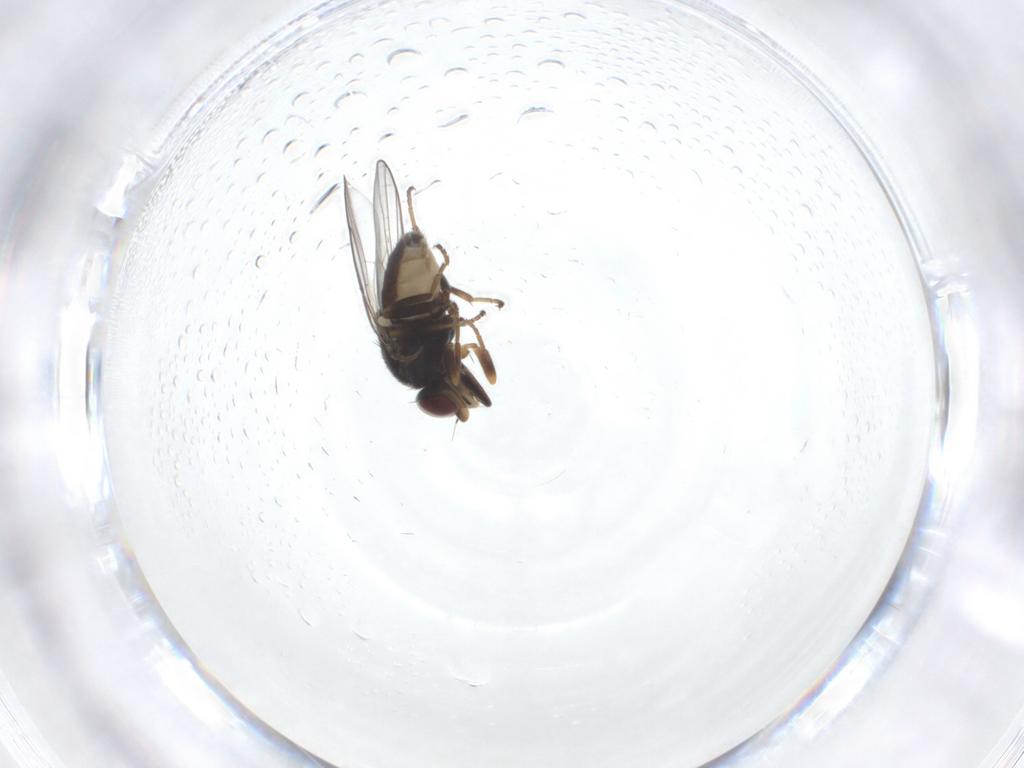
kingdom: Animalia
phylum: Arthropoda
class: Insecta
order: Diptera
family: Chloropidae
